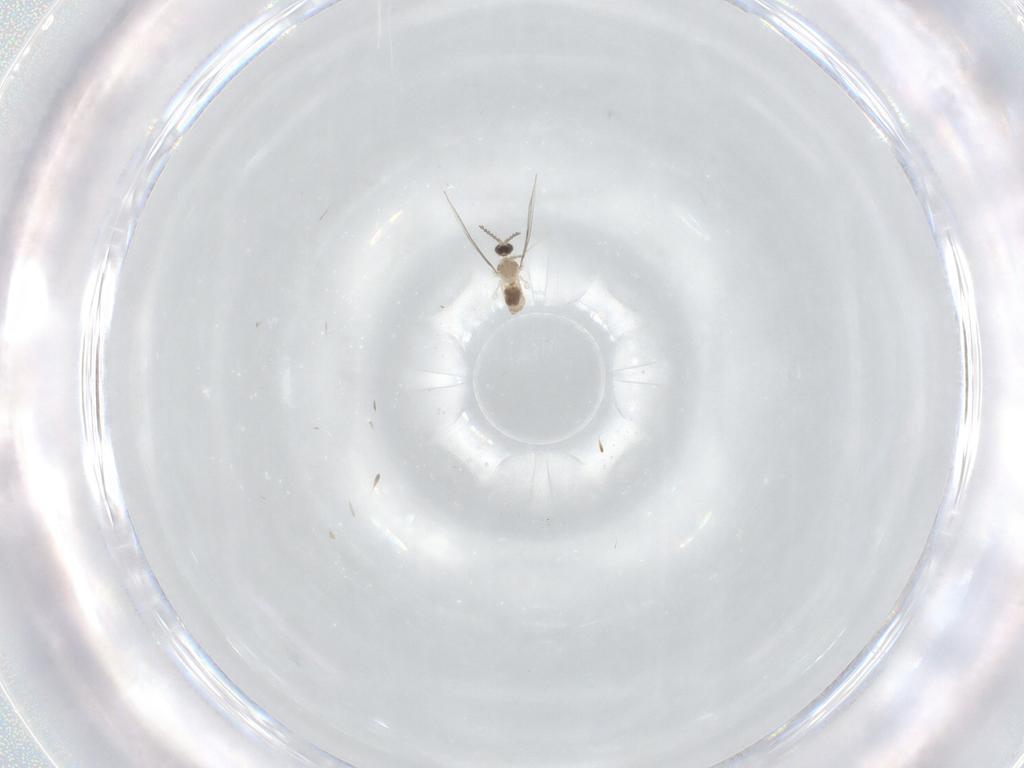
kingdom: Animalia
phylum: Arthropoda
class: Insecta
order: Diptera
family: Cecidomyiidae
